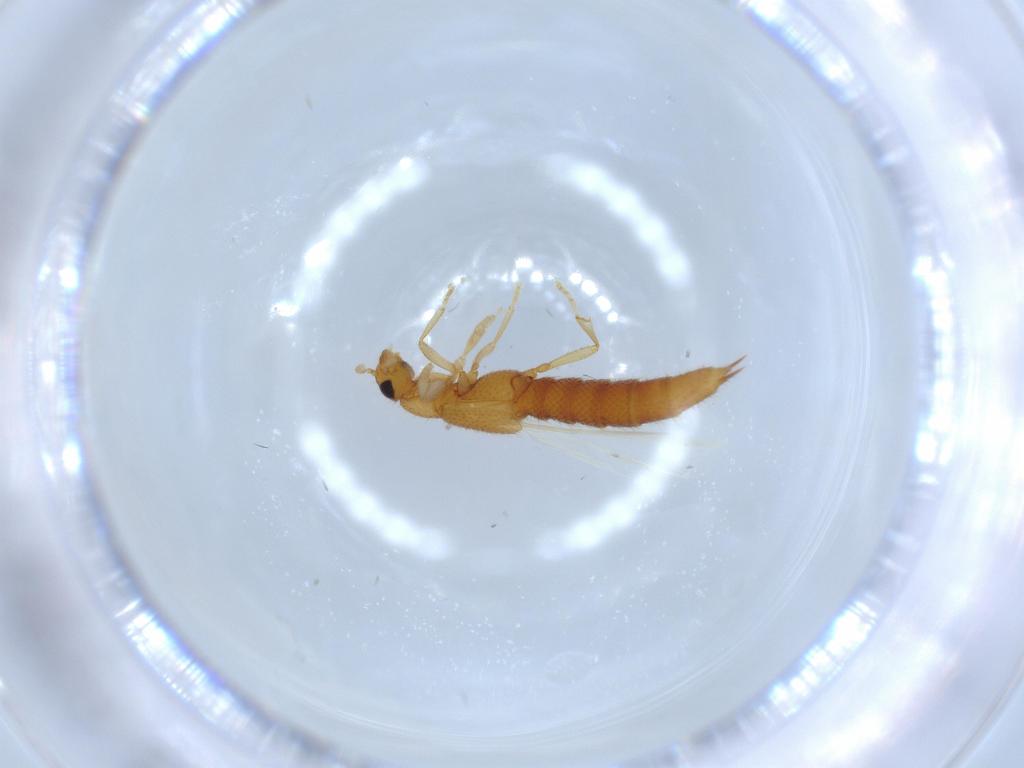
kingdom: Animalia
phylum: Arthropoda
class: Insecta
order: Coleoptera
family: Staphylinidae
